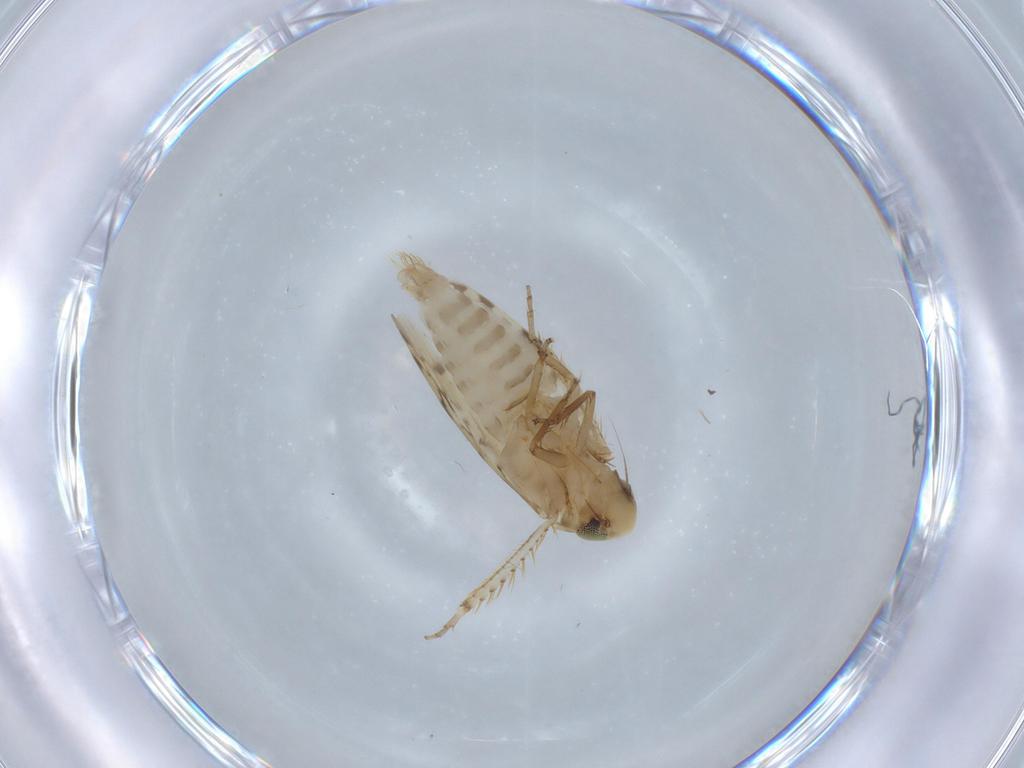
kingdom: Animalia
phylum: Arthropoda
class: Insecta
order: Hemiptera
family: Cicadellidae
